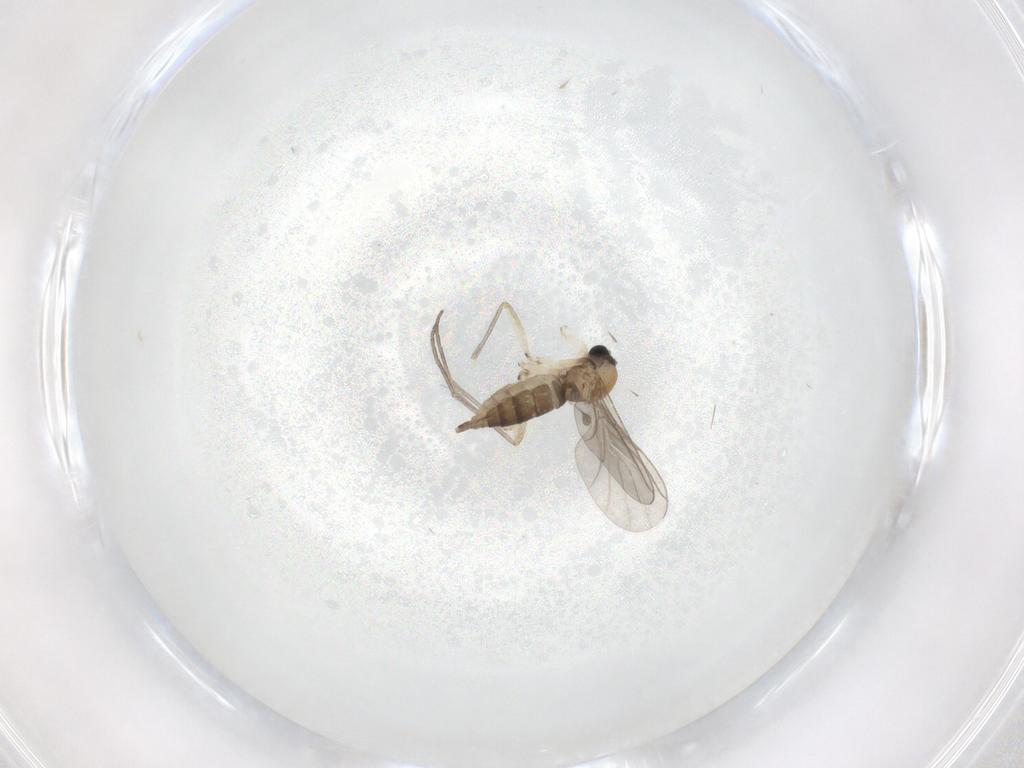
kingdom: Animalia
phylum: Arthropoda
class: Insecta
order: Diptera
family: Sciaridae
